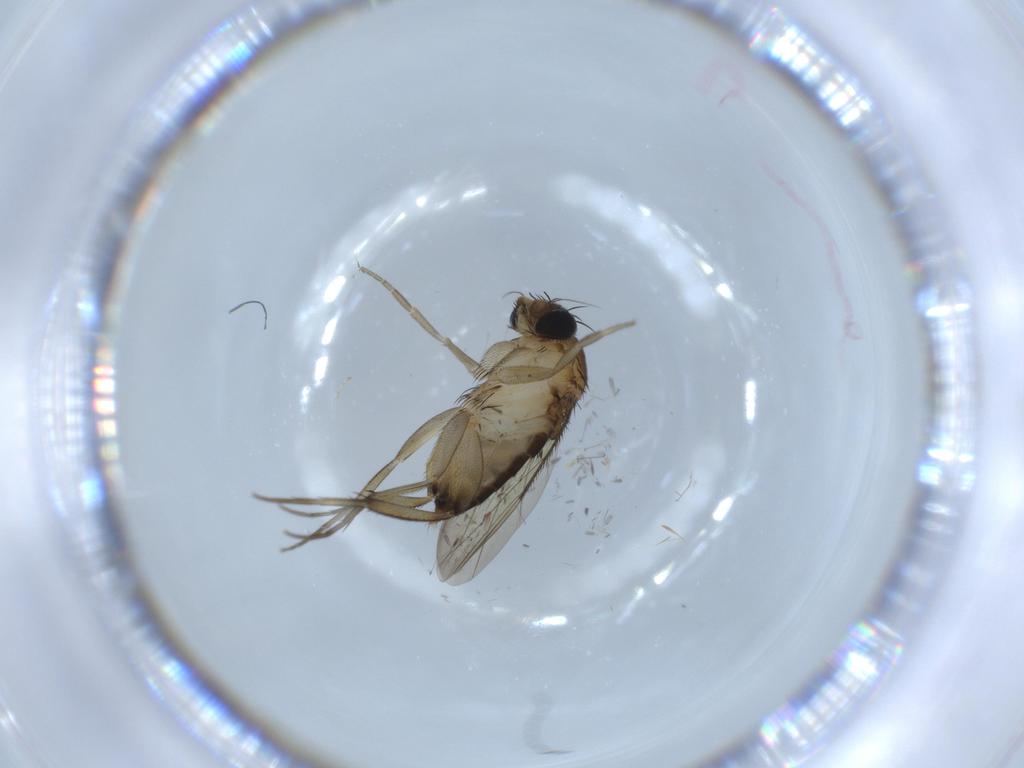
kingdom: Animalia
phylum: Arthropoda
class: Insecta
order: Diptera
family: Phoridae
